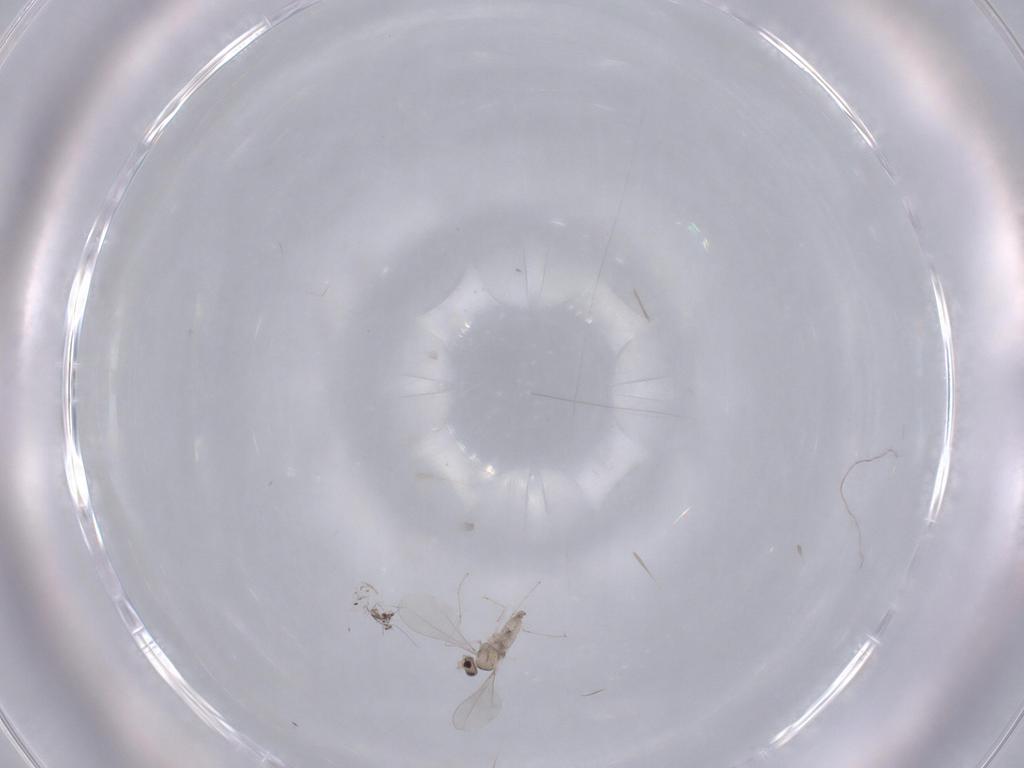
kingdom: Animalia
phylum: Arthropoda
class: Insecta
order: Diptera
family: Cecidomyiidae
